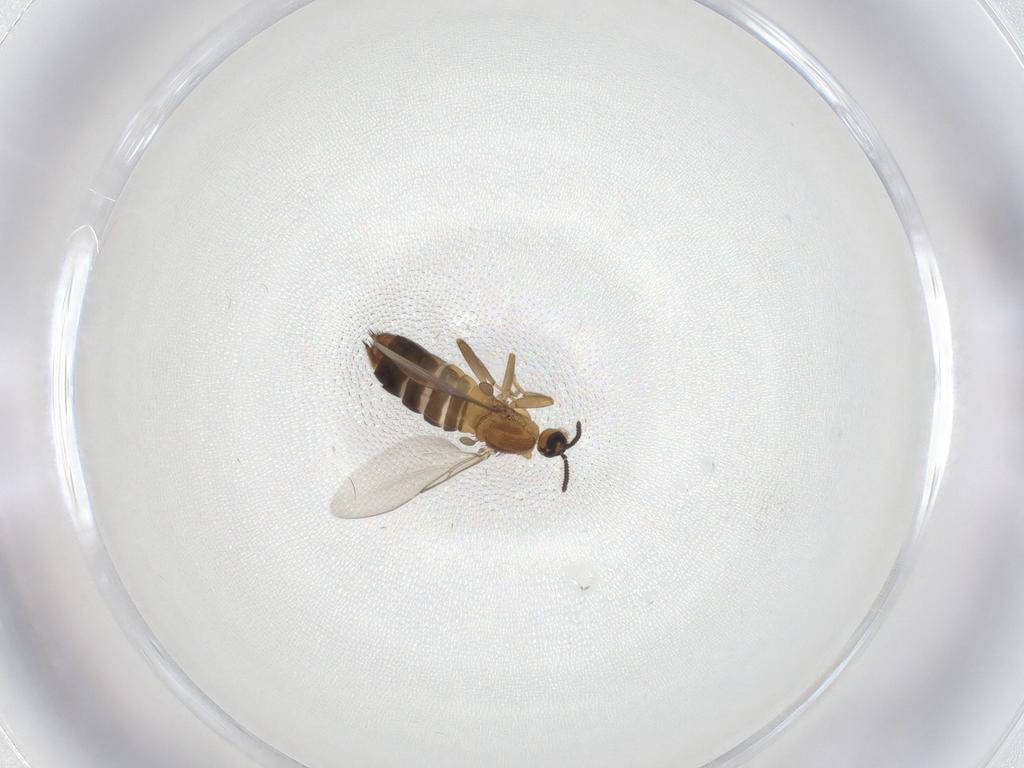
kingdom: Animalia
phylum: Arthropoda
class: Insecta
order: Diptera
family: Scatopsidae
